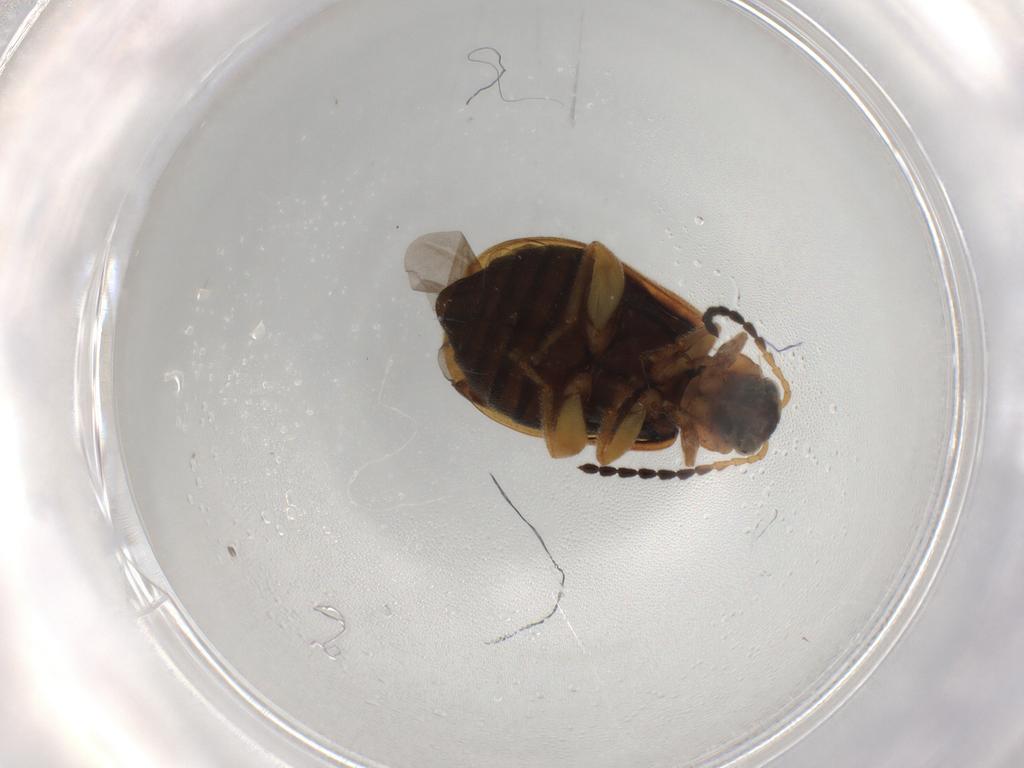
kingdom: Animalia
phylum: Arthropoda
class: Insecta
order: Coleoptera
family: Chrysomelidae
